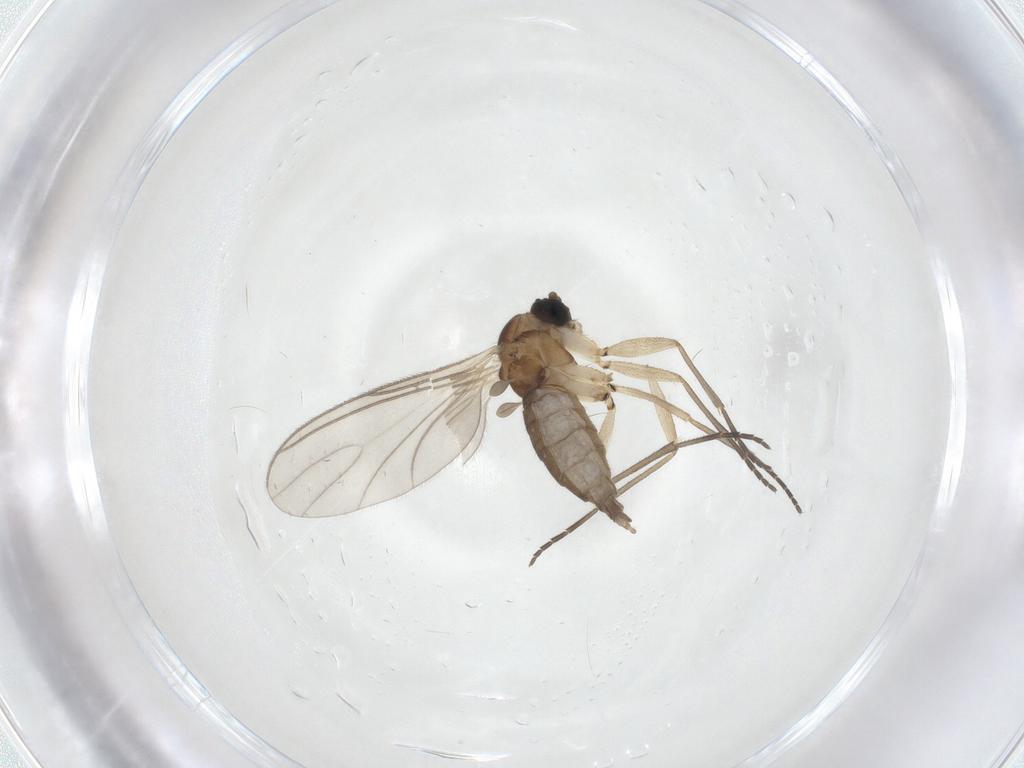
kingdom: Animalia
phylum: Arthropoda
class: Insecta
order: Diptera
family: Sciaridae
